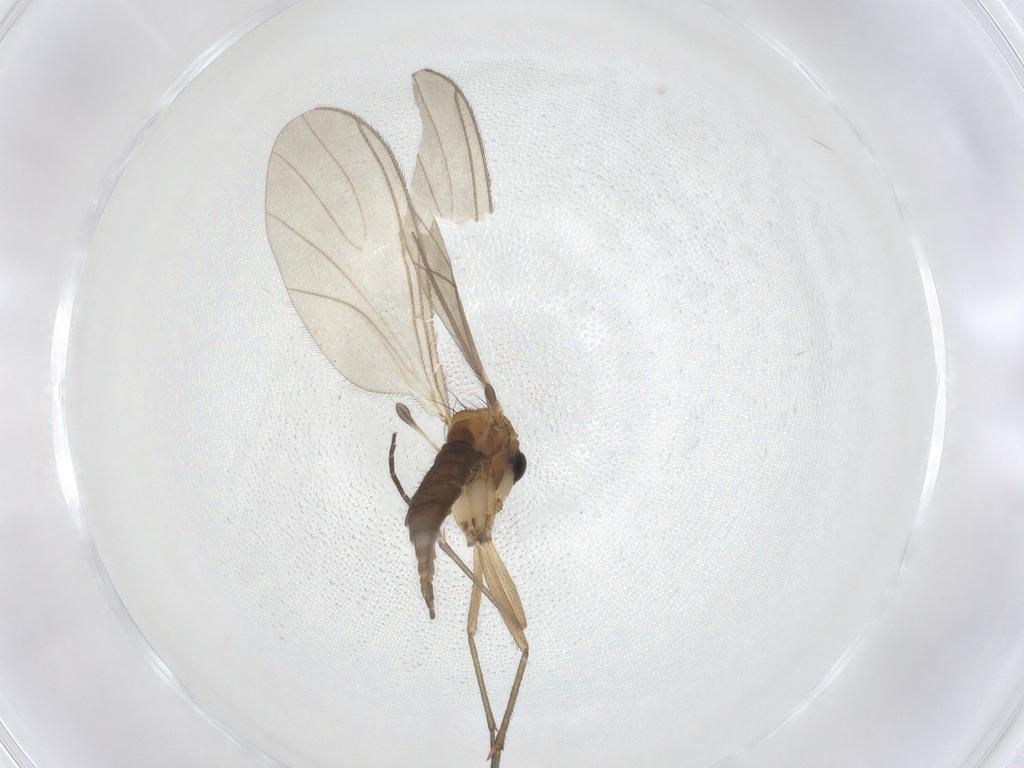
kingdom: Animalia
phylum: Arthropoda
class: Insecta
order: Diptera
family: Sciaridae
